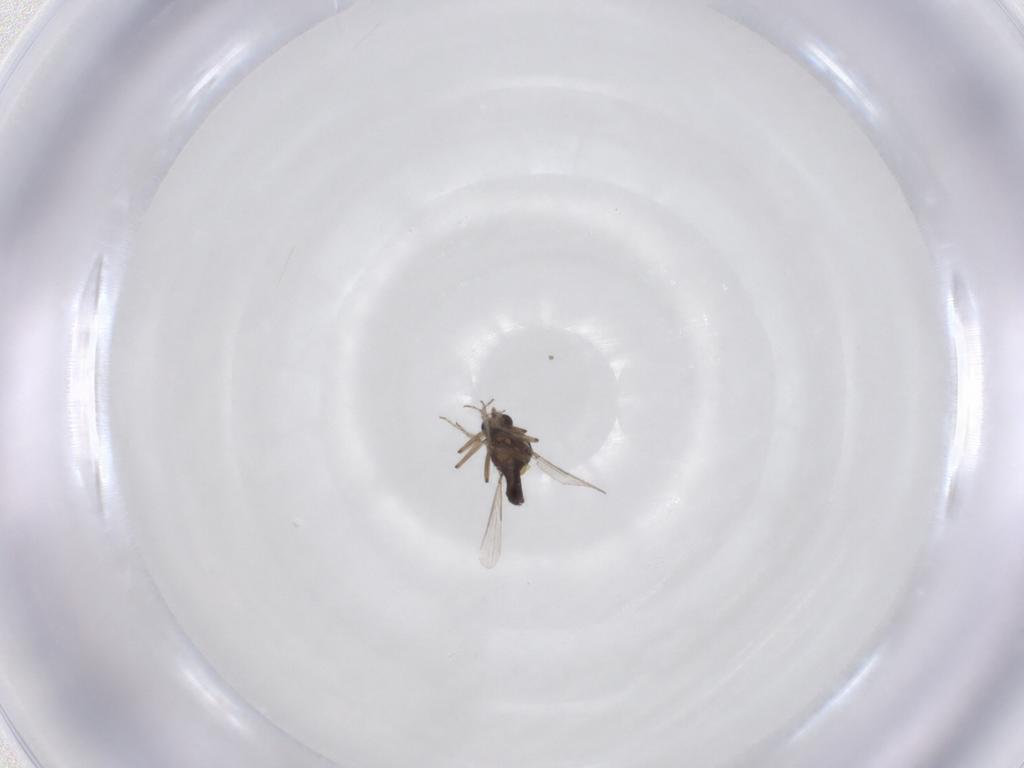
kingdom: Animalia
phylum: Arthropoda
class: Insecta
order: Diptera
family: Ceratopogonidae
